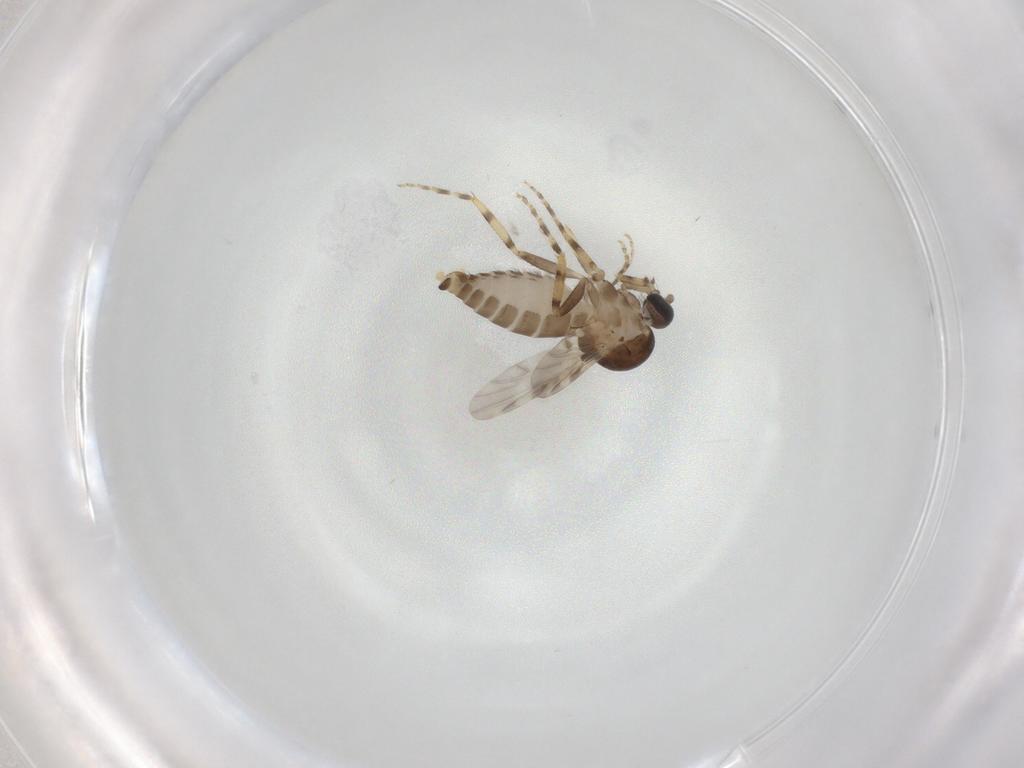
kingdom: Animalia
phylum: Arthropoda
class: Insecta
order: Diptera
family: Ceratopogonidae
